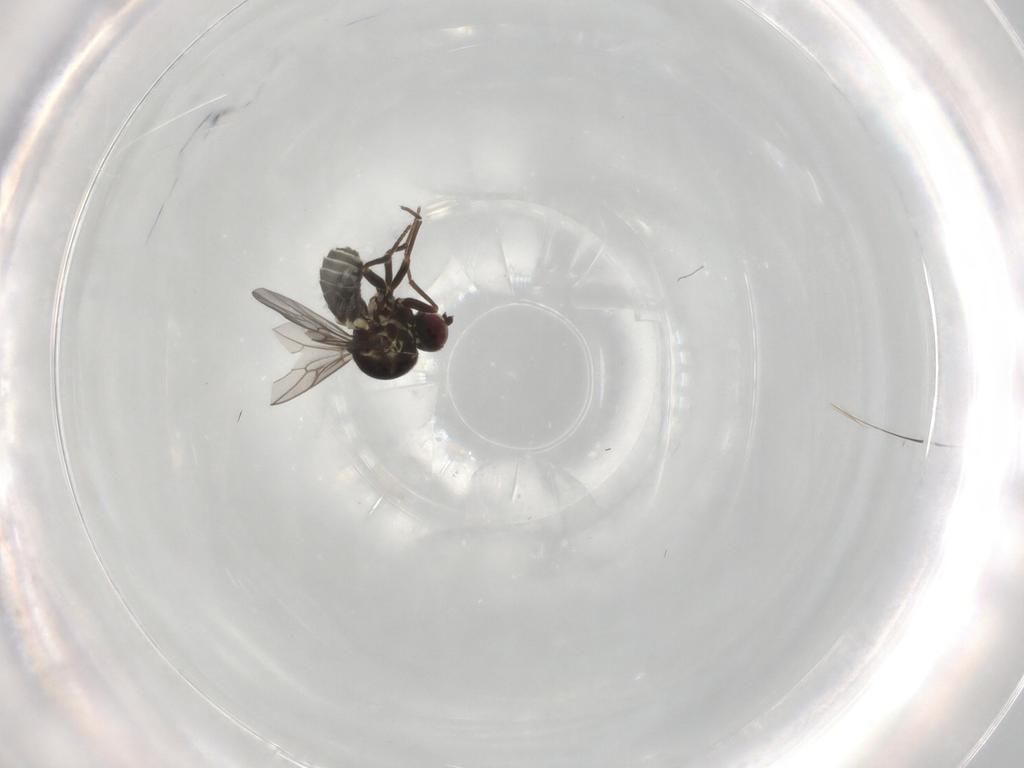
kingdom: Animalia
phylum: Arthropoda
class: Insecta
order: Diptera
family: Mythicomyiidae
